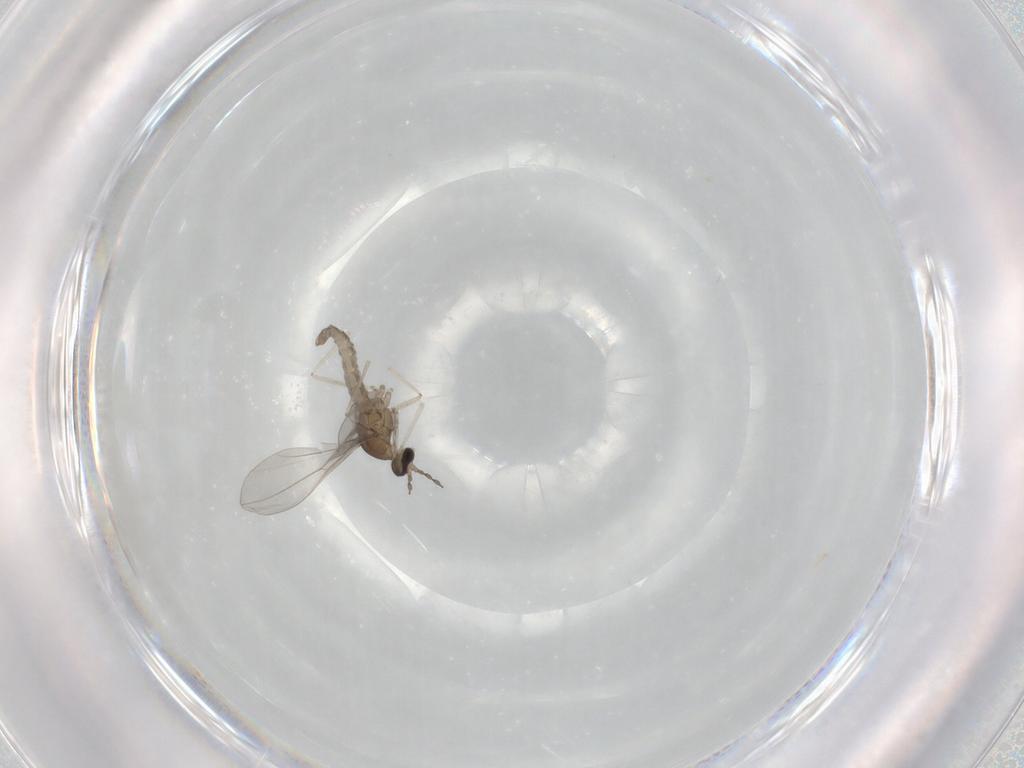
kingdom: Animalia
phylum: Arthropoda
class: Insecta
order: Diptera
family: Cecidomyiidae
